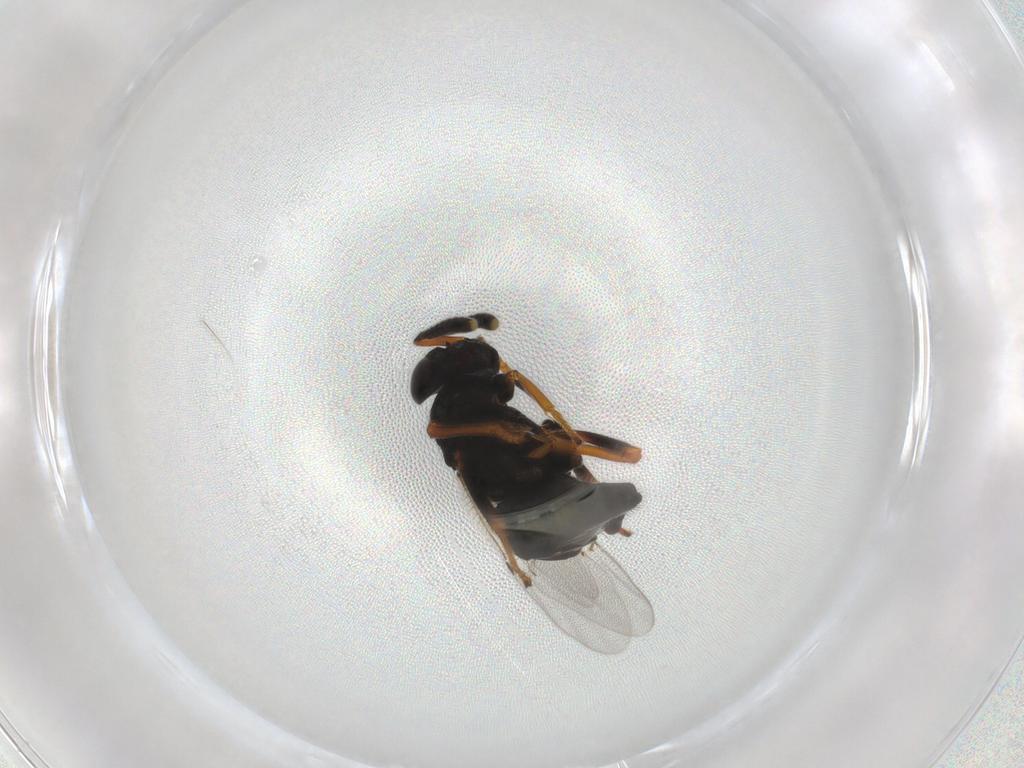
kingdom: Animalia
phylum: Arthropoda
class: Insecta
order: Hymenoptera
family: Encyrtidae
